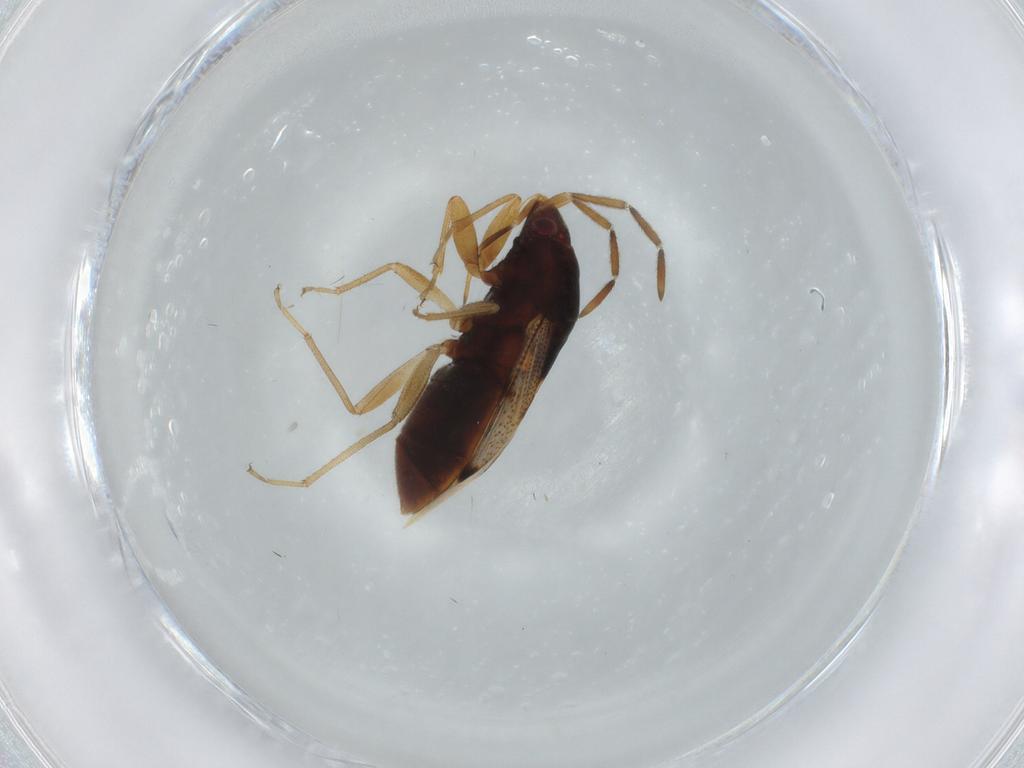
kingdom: Animalia
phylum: Arthropoda
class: Insecta
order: Hemiptera
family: Rhyparochromidae
